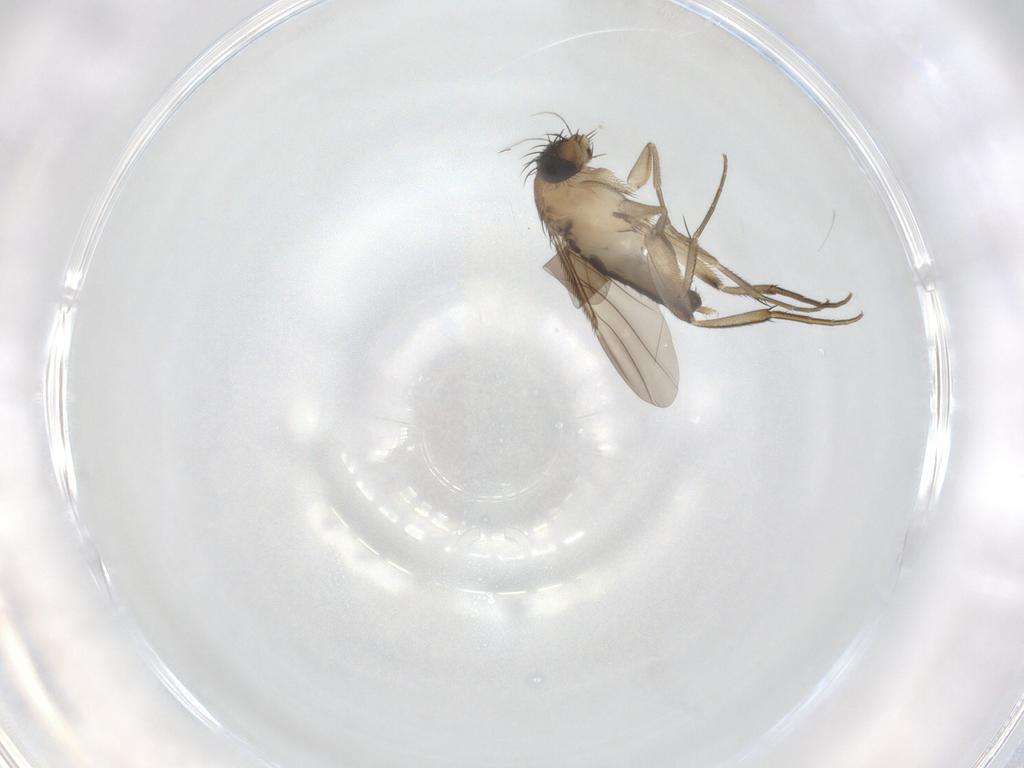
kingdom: Animalia
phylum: Arthropoda
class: Insecta
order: Diptera
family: Phoridae
